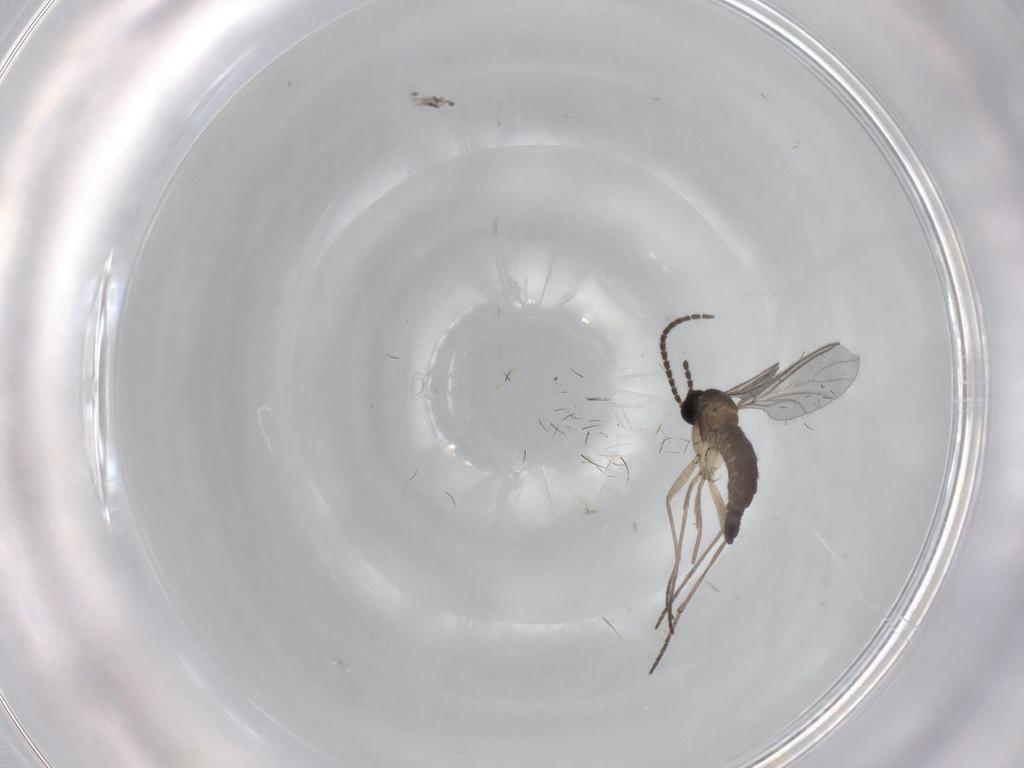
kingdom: Animalia
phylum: Arthropoda
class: Insecta
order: Diptera
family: Sciaridae
